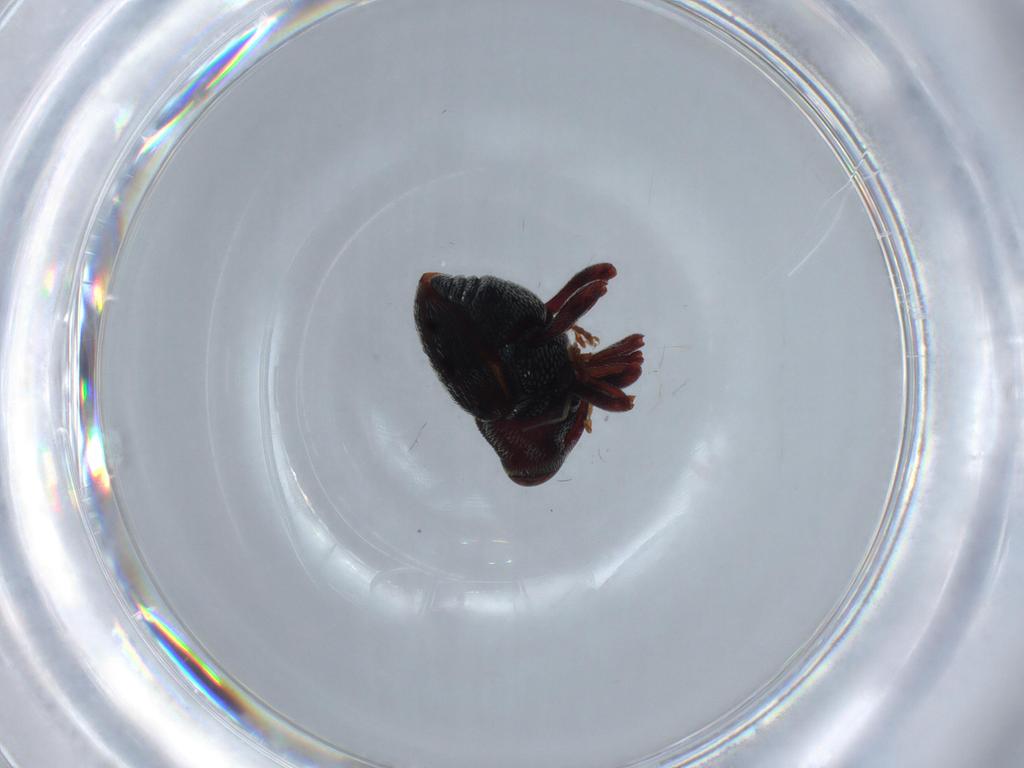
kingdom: Animalia
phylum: Arthropoda
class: Insecta
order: Coleoptera
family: Curculionidae
